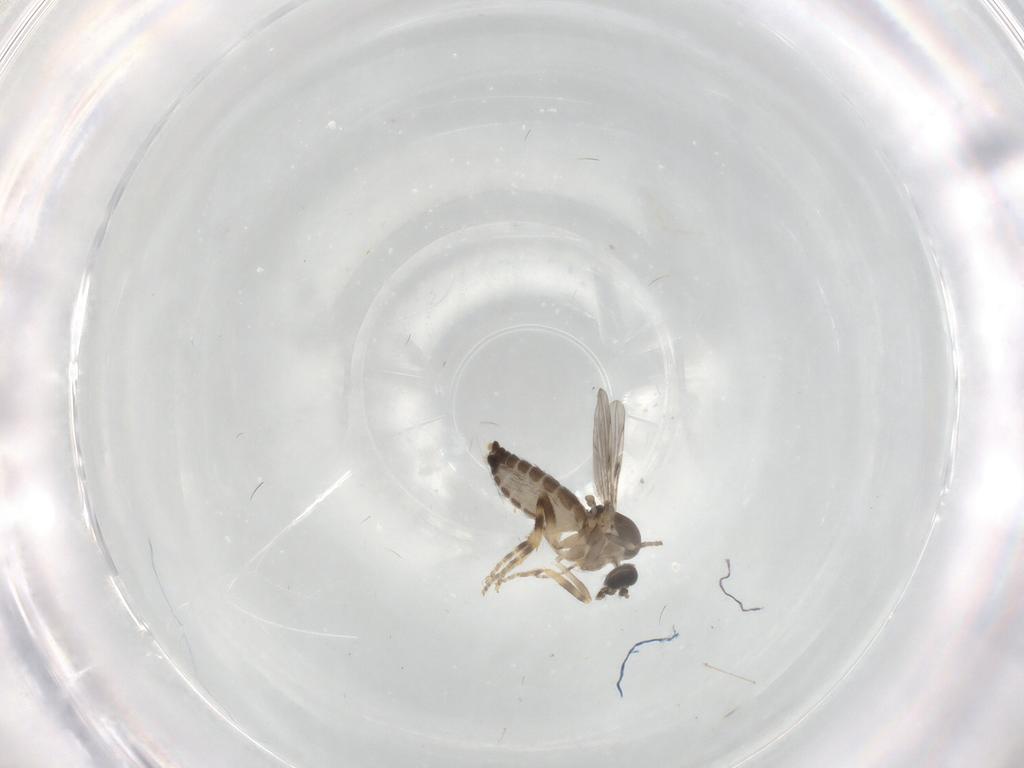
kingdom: Animalia
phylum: Arthropoda
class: Insecta
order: Diptera
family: Ceratopogonidae
